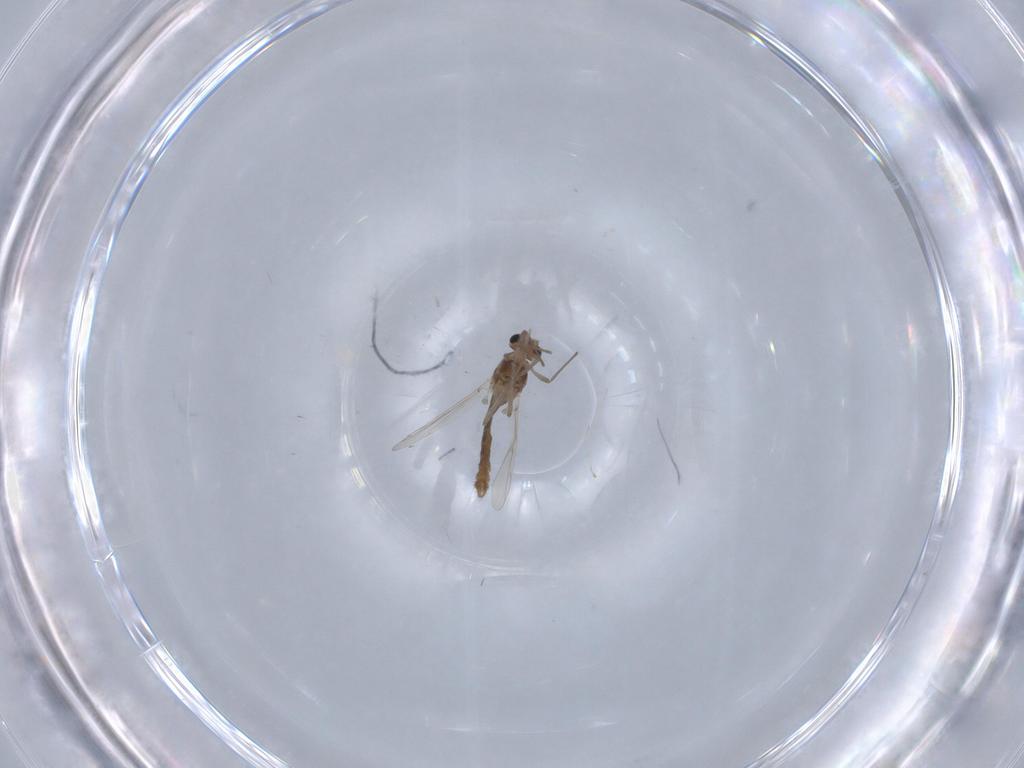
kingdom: Animalia
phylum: Arthropoda
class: Insecta
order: Diptera
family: Chironomidae
